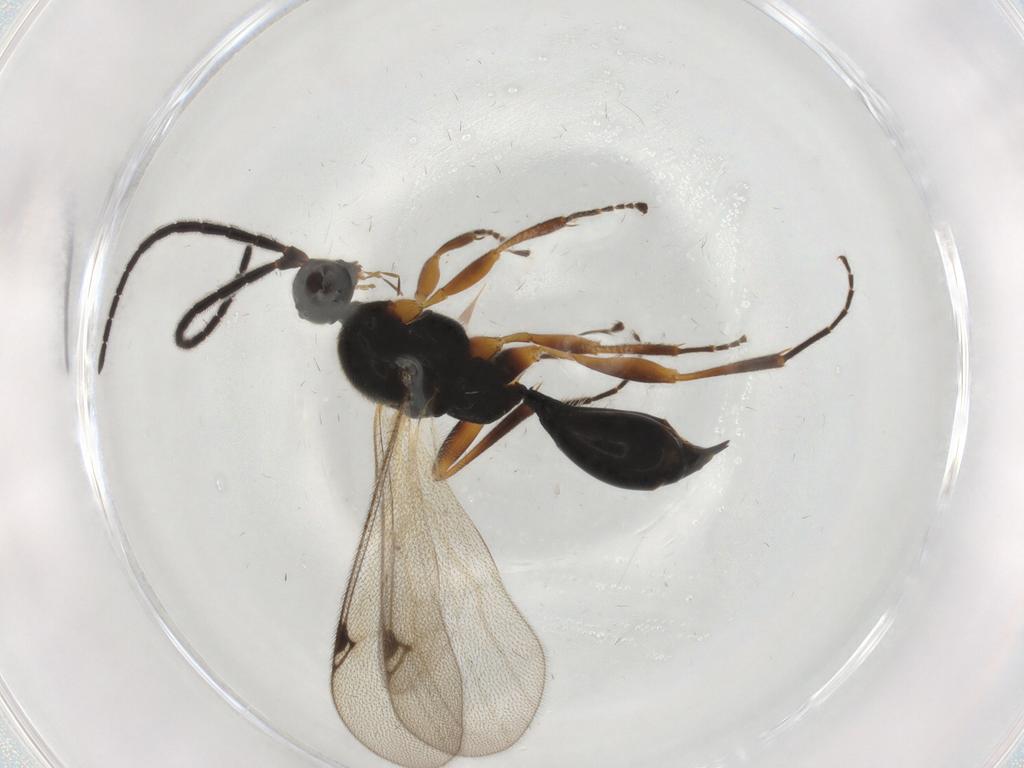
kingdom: Animalia
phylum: Arthropoda
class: Insecta
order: Hymenoptera
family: Proctotrupidae
